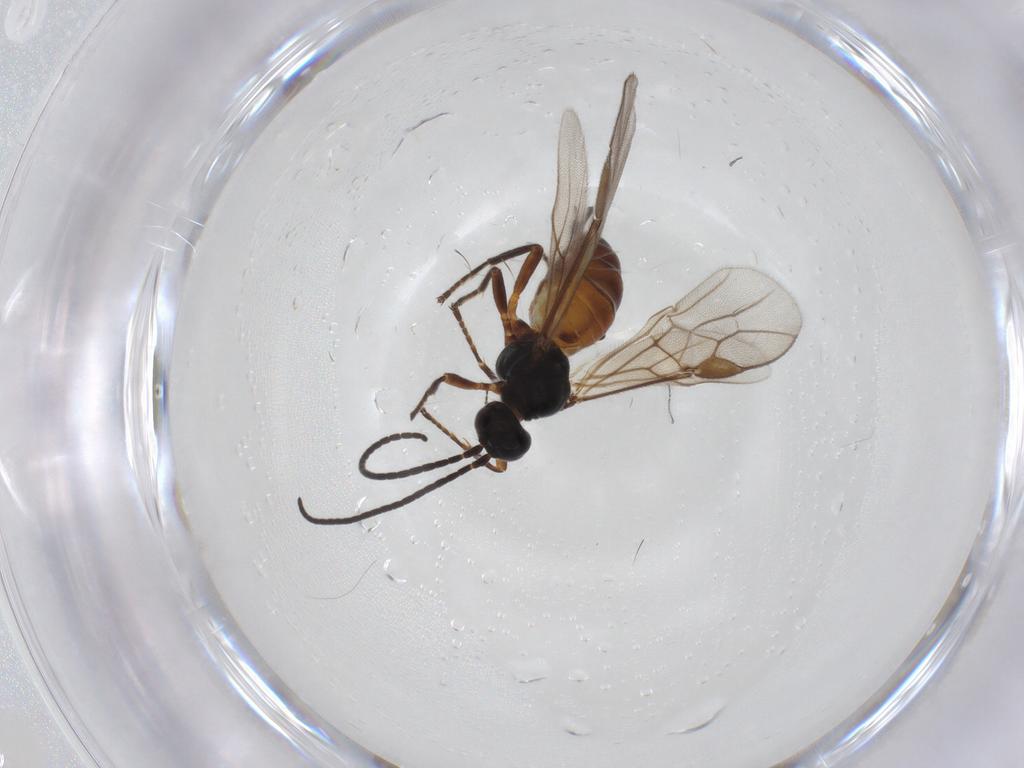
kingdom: Animalia
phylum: Arthropoda
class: Insecta
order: Hymenoptera
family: Braconidae
